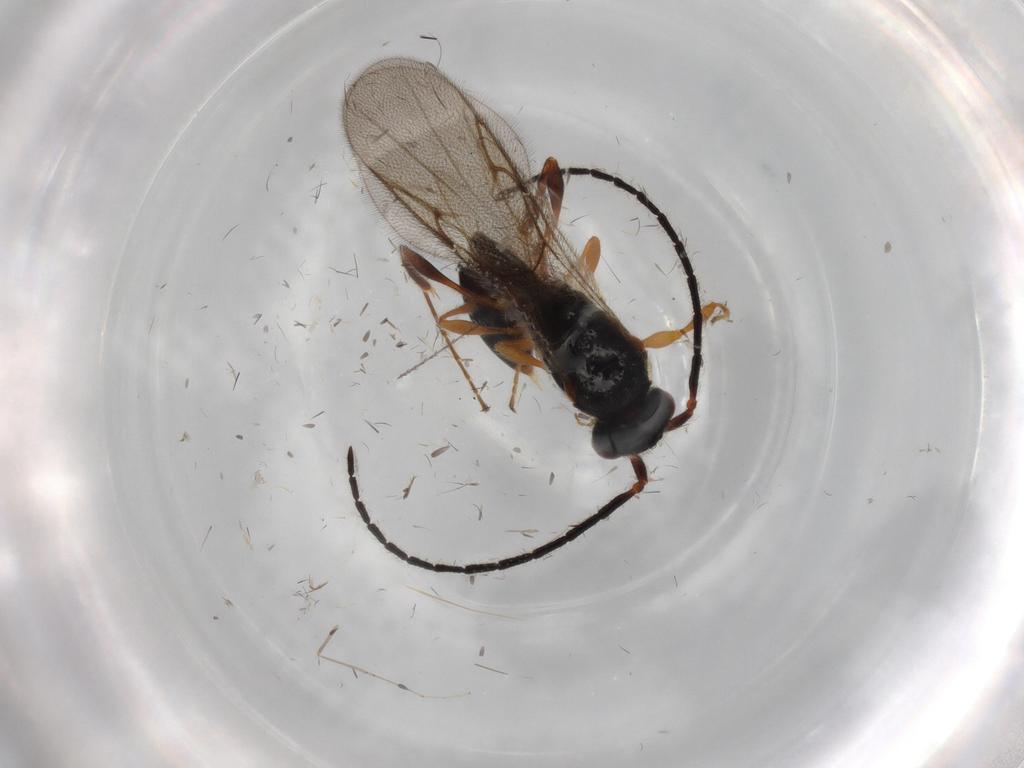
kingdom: Animalia
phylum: Arthropoda
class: Insecta
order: Hymenoptera
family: Diapriidae
